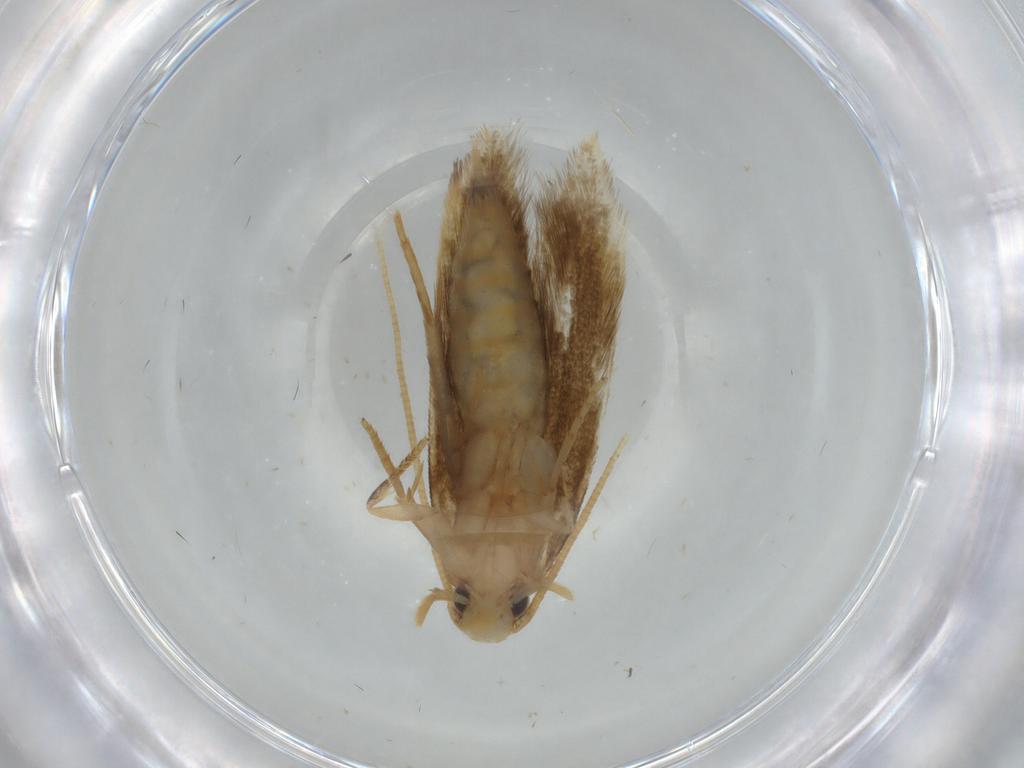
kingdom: Animalia
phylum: Arthropoda
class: Insecta
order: Lepidoptera
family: Tineidae
